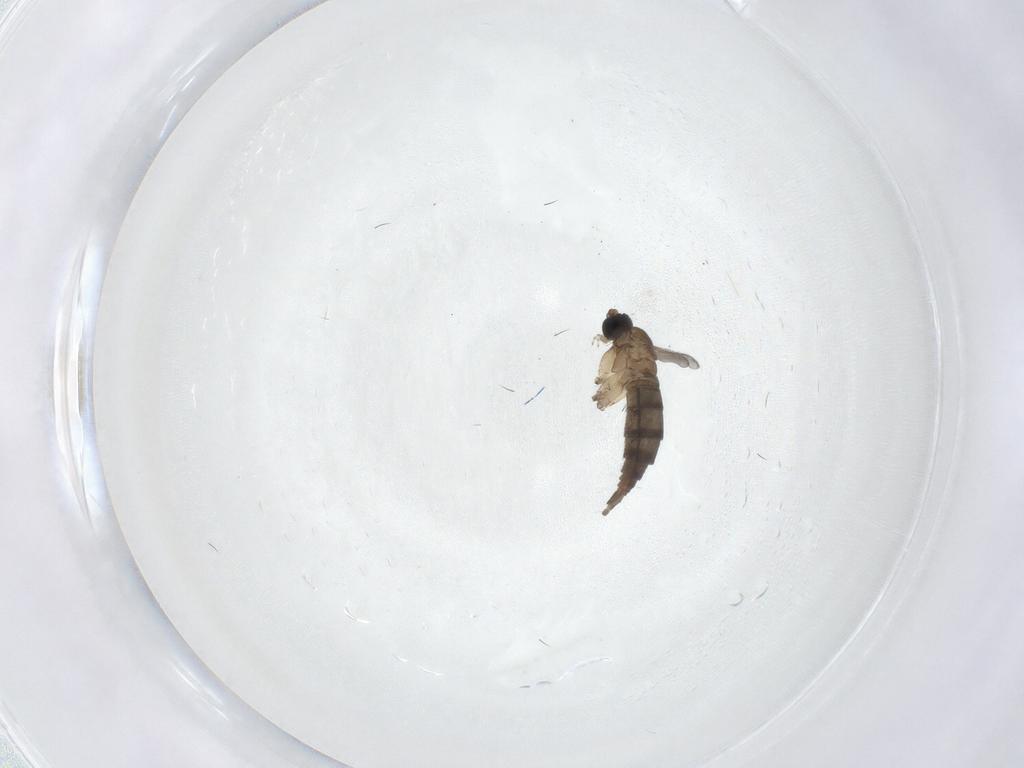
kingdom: Animalia
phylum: Arthropoda
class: Insecta
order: Diptera
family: Sciaridae
